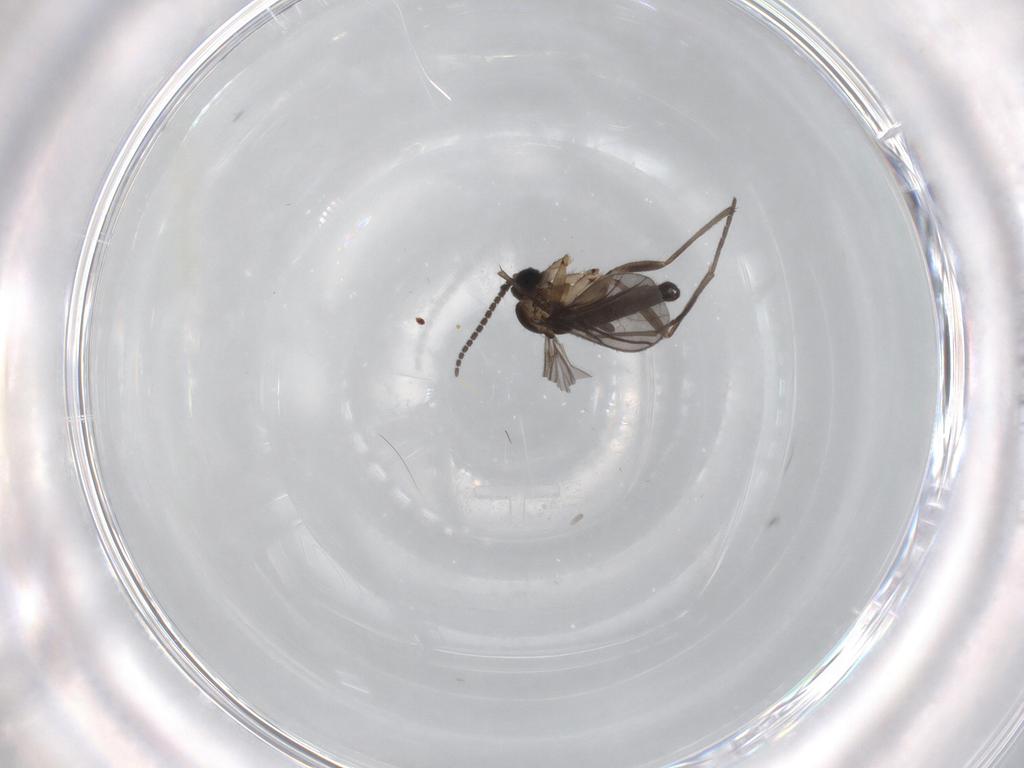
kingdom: Animalia
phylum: Arthropoda
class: Insecta
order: Diptera
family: Sciaridae
